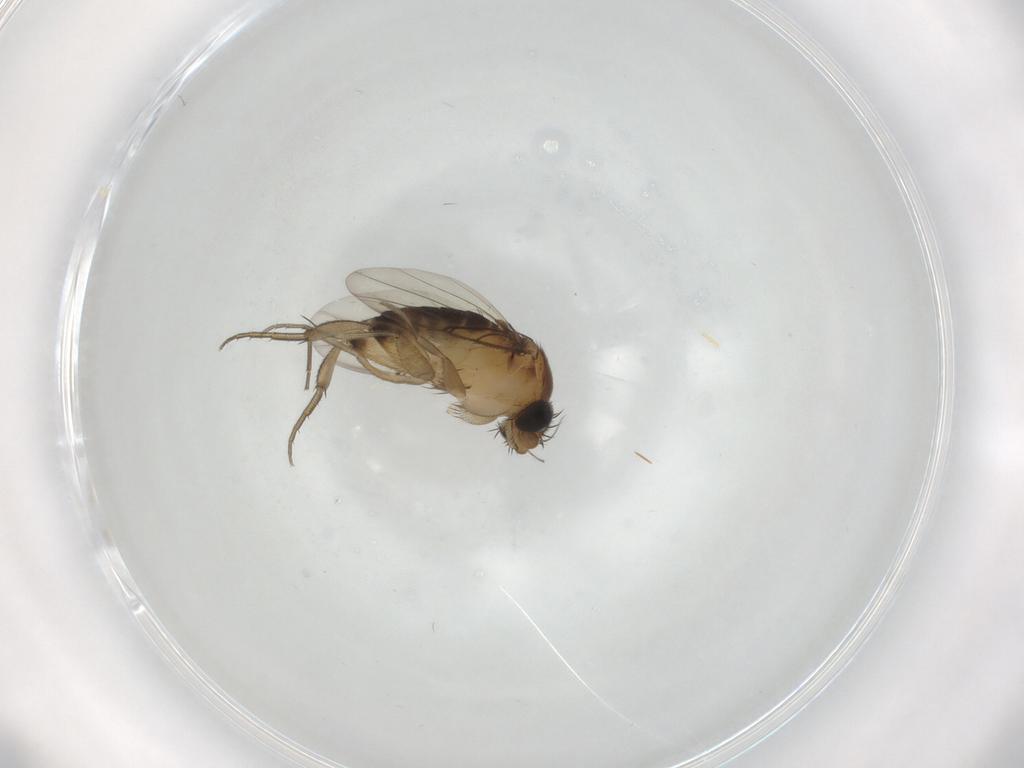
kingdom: Animalia
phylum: Arthropoda
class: Insecta
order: Diptera
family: Phoridae
